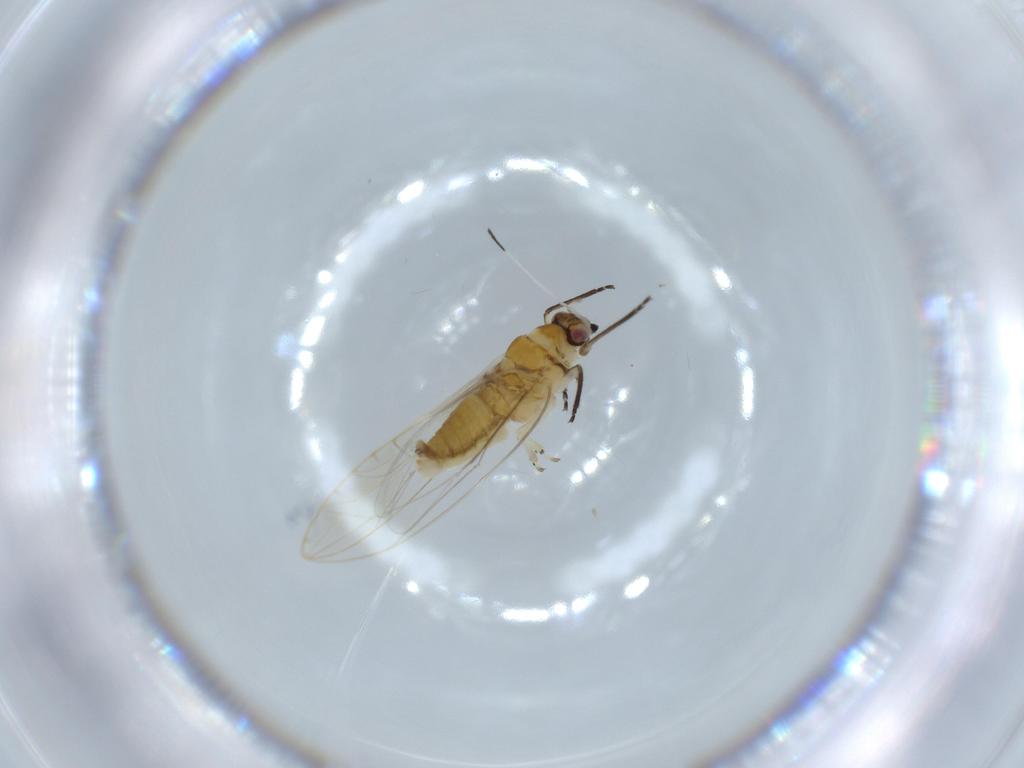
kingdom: Animalia
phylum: Arthropoda
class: Insecta
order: Hemiptera
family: Triozidae
